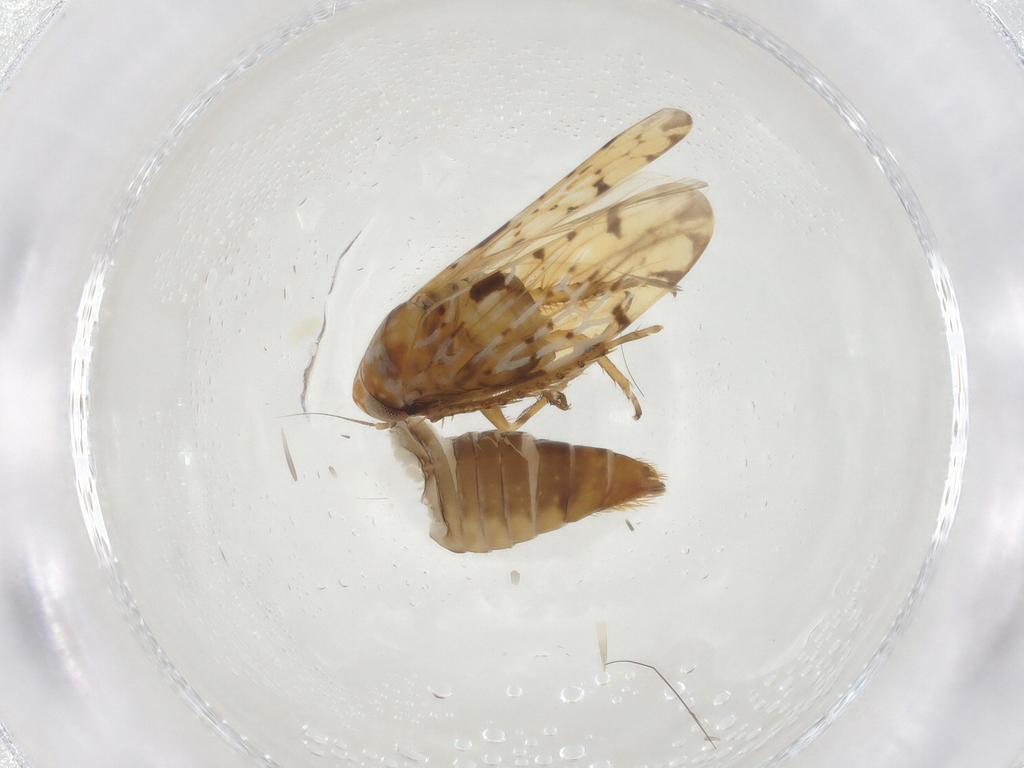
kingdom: Animalia
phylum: Arthropoda
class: Insecta
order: Hemiptera
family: Cicadellidae
